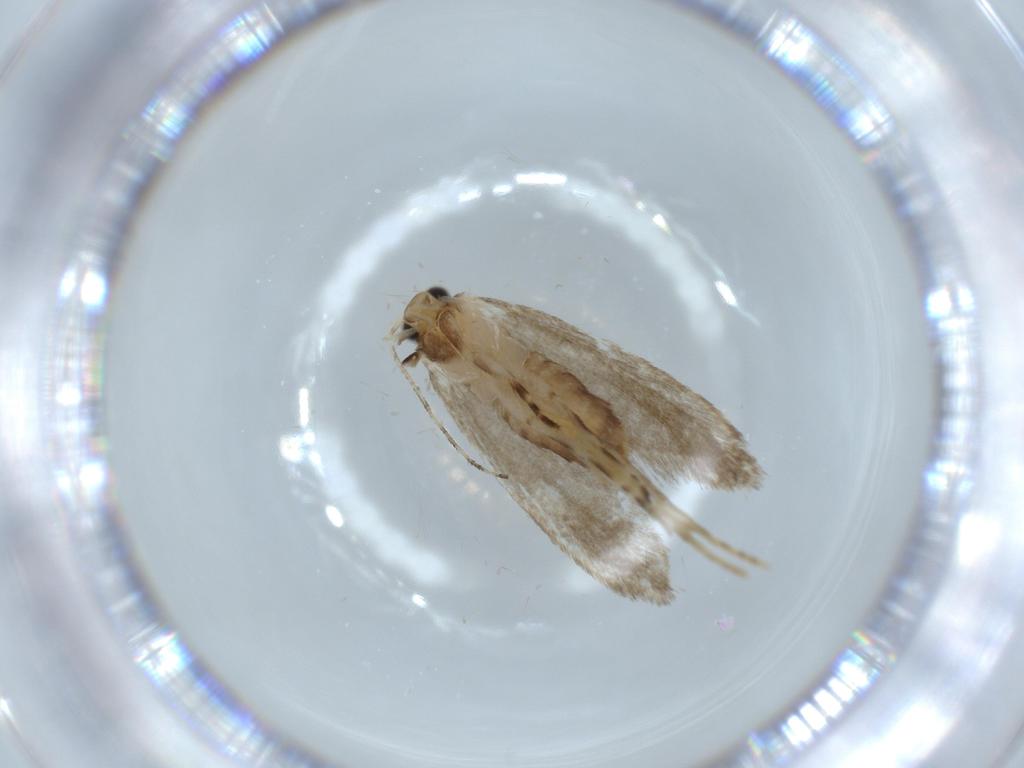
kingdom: Animalia
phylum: Arthropoda
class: Insecta
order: Lepidoptera
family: Tineidae
